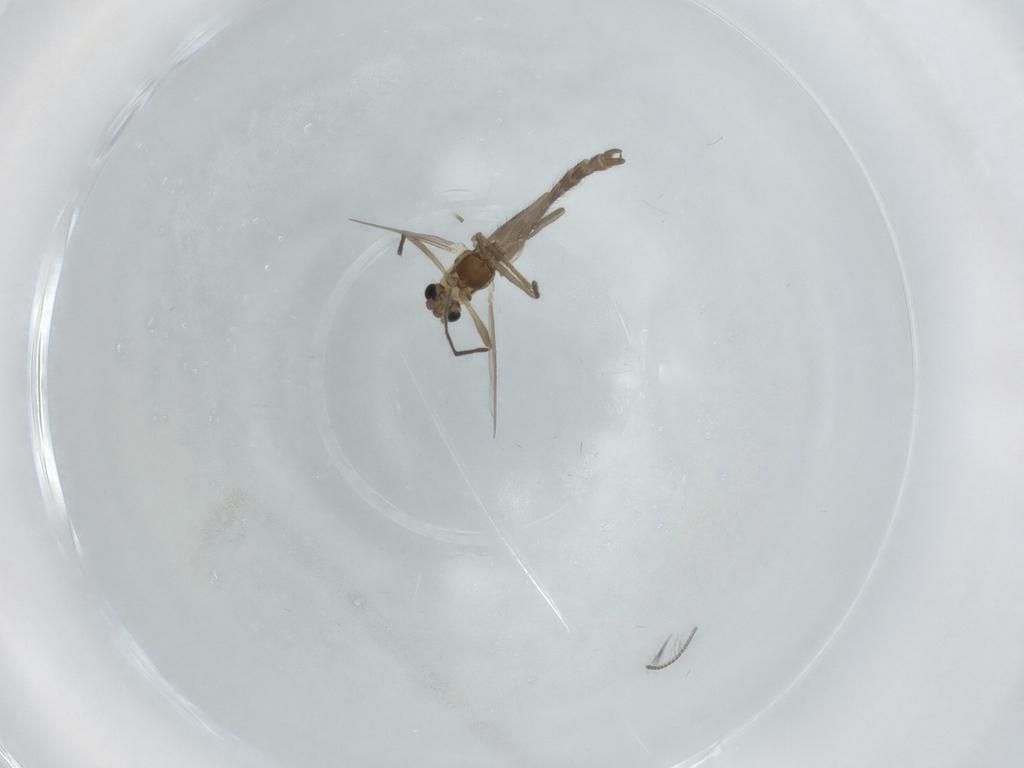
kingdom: Animalia
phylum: Arthropoda
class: Insecta
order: Diptera
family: Chironomidae
